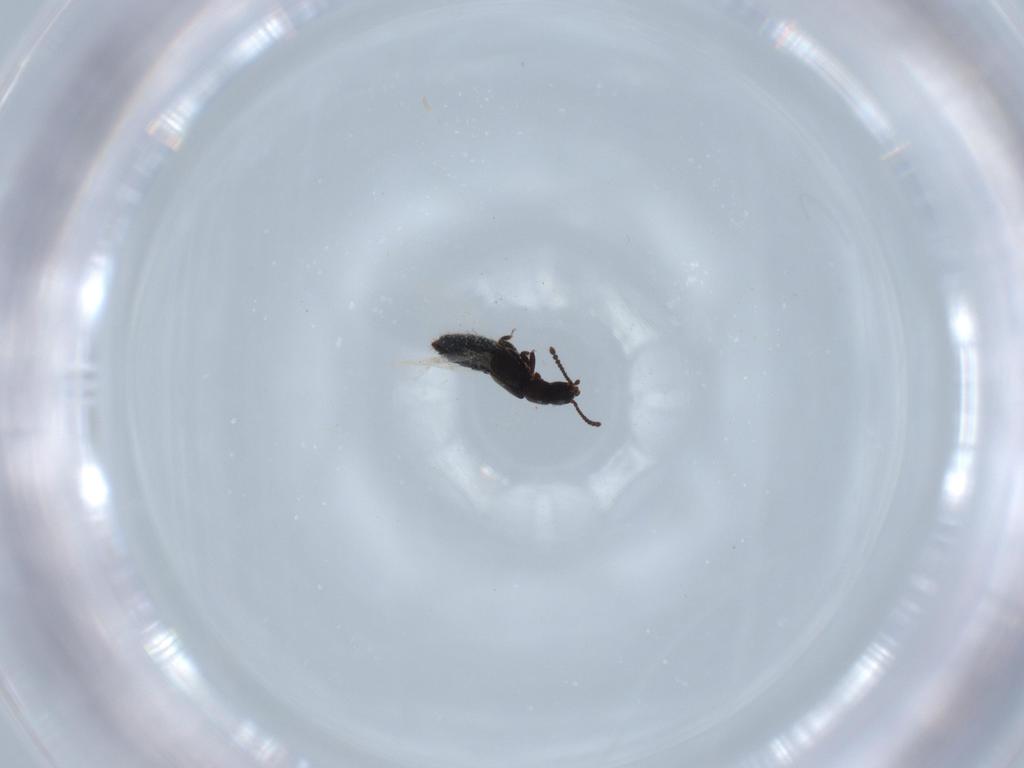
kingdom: Animalia
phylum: Arthropoda
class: Insecta
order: Coleoptera
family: Staphylinidae
